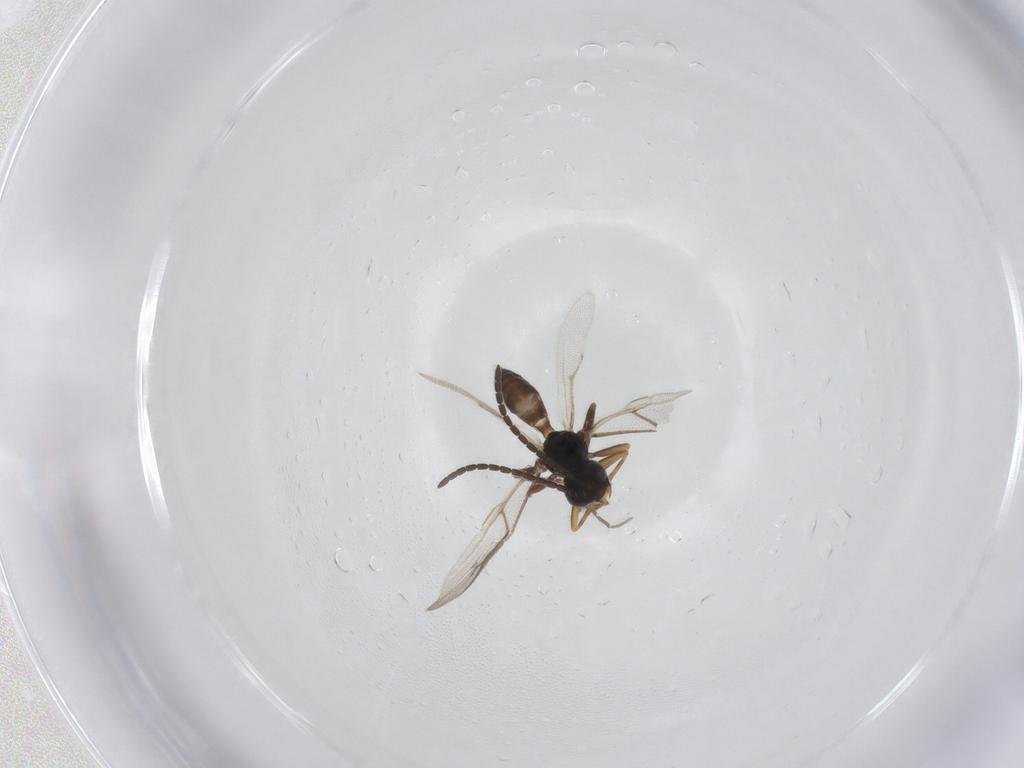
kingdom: Animalia
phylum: Arthropoda
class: Insecta
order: Hymenoptera
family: Braconidae
